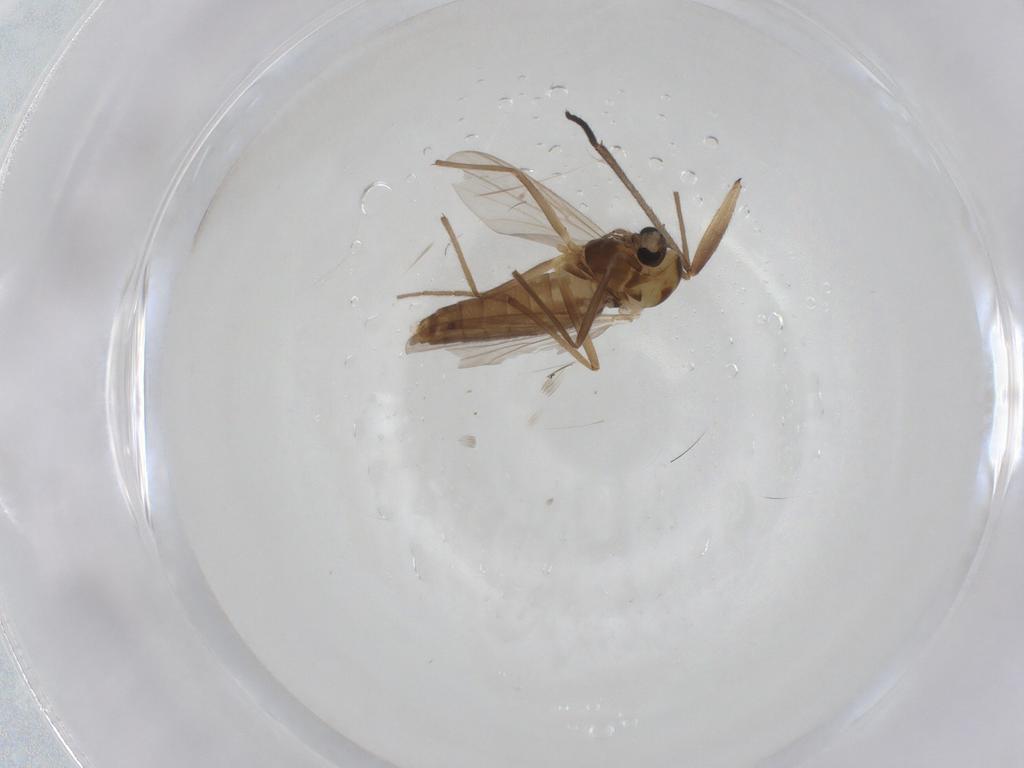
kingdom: Animalia
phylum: Arthropoda
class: Insecta
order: Diptera
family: Chironomidae
